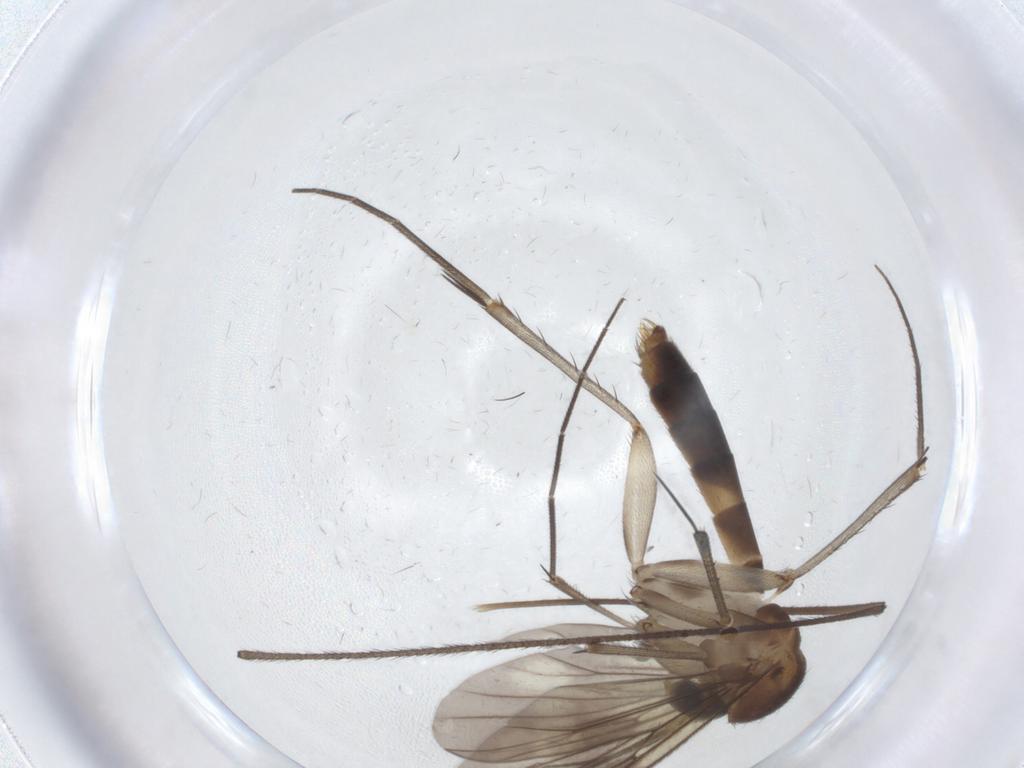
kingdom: Animalia
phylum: Arthropoda
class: Insecta
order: Diptera
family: Mycetophilidae
